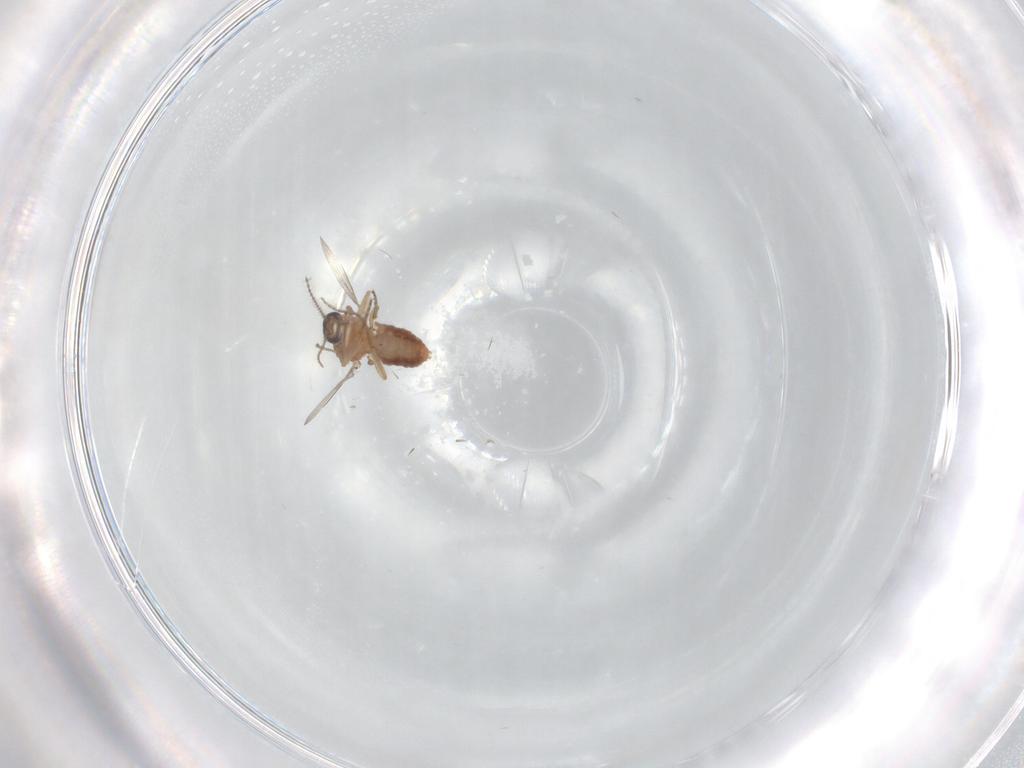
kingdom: Animalia
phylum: Arthropoda
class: Insecta
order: Diptera
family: Ceratopogonidae
